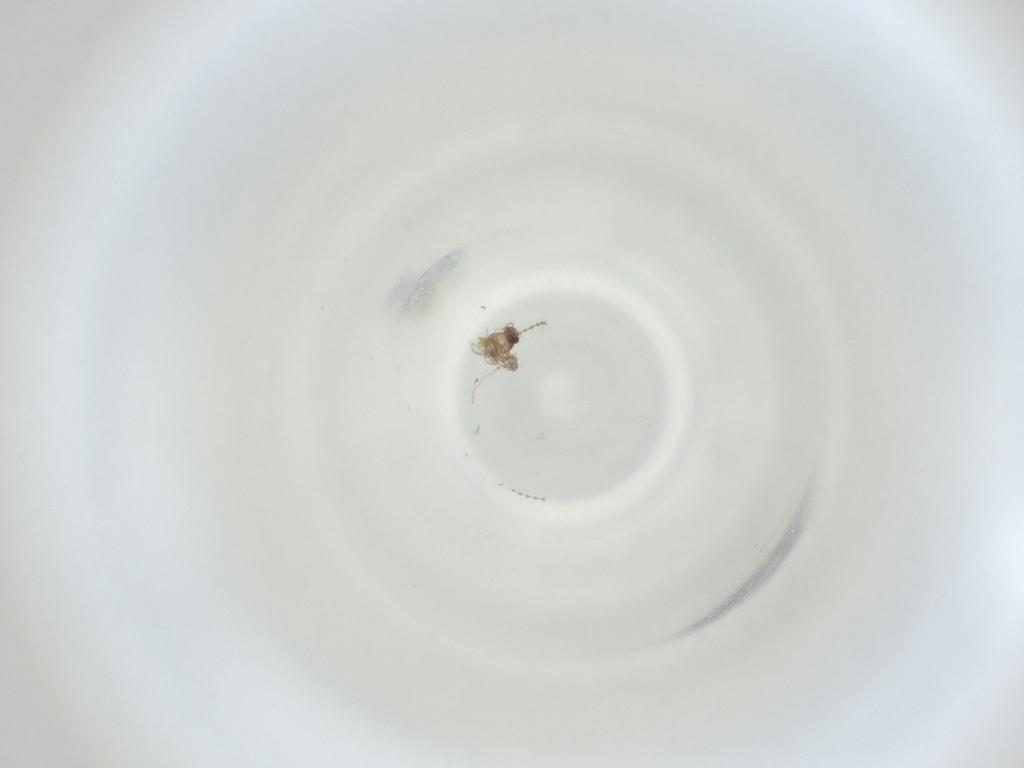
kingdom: Animalia
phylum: Arthropoda
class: Insecta
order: Diptera
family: Cecidomyiidae
